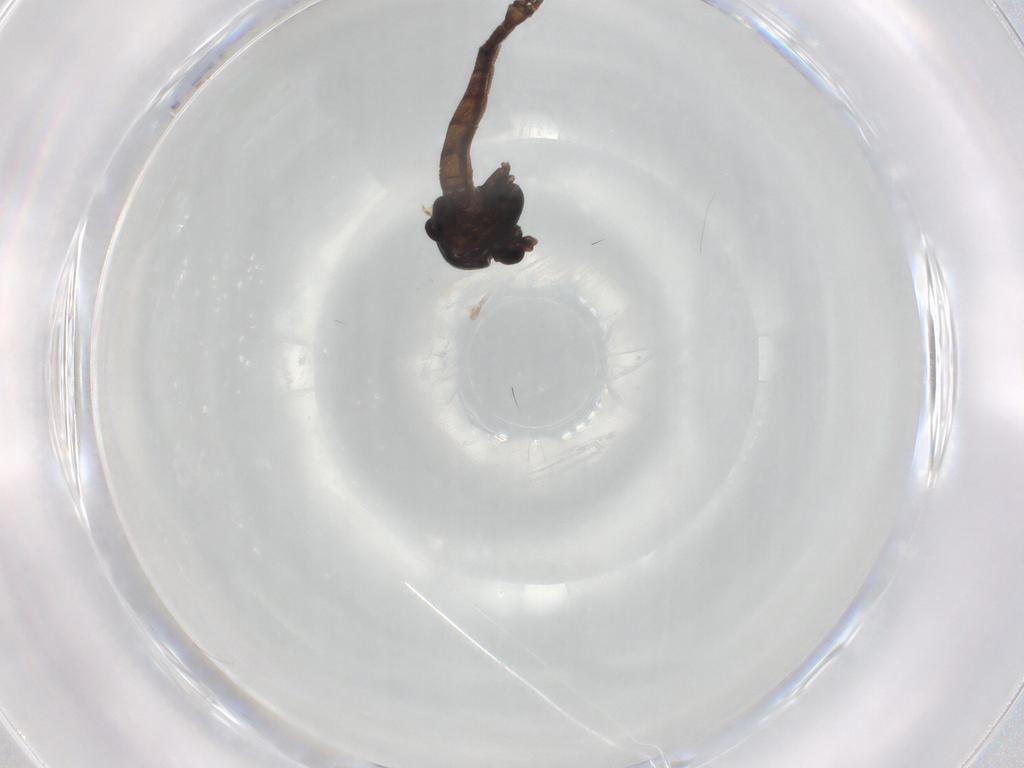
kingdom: Animalia
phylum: Arthropoda
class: Insecta
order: Diptera
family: Chironomidae
